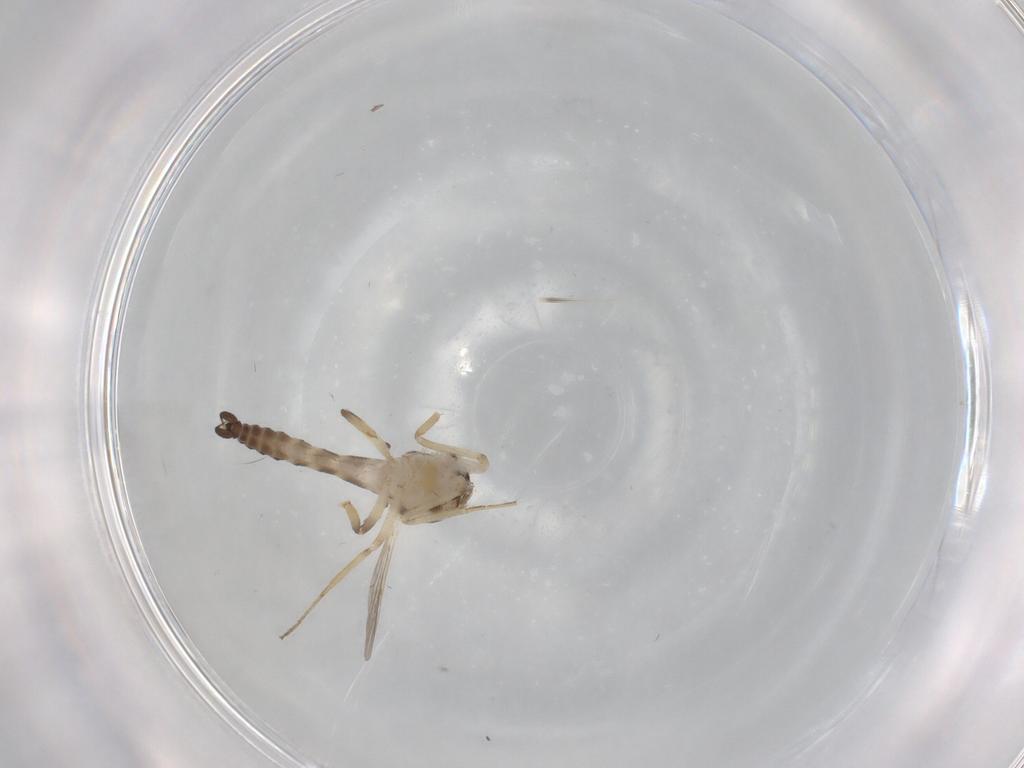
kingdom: Animalia
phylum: Arthropoda
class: Insecta
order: Diptera
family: Ceratopogonidae
